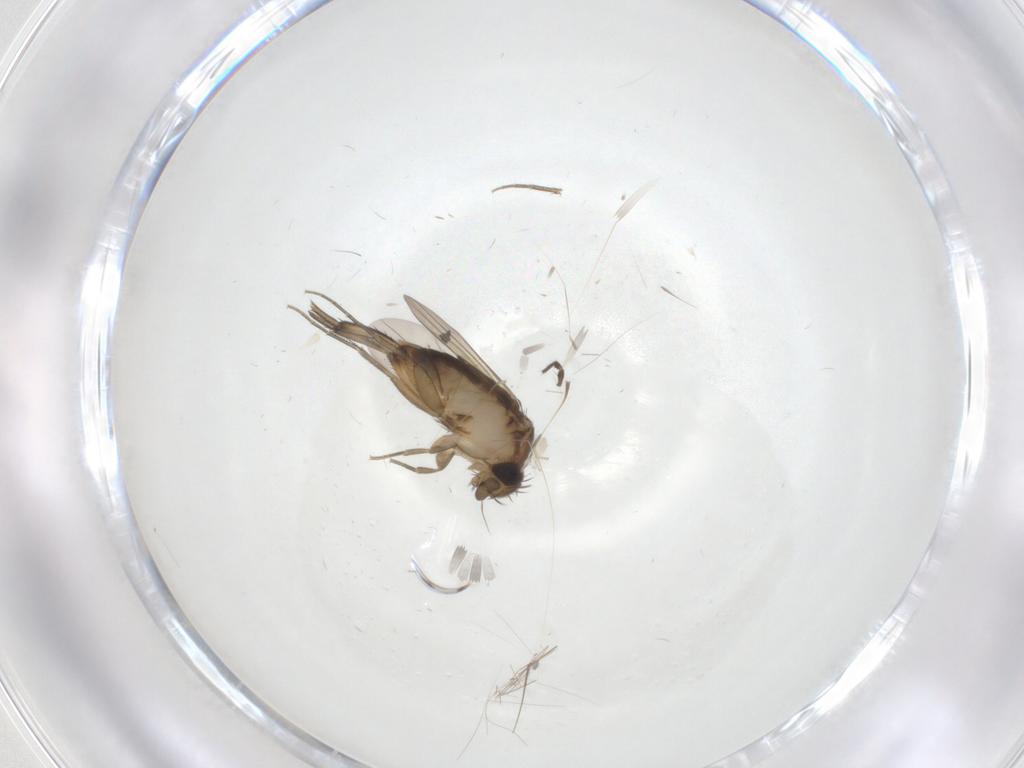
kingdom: Animalia
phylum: Arthropoda
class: Insecta
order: Diptera
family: Phoridae
